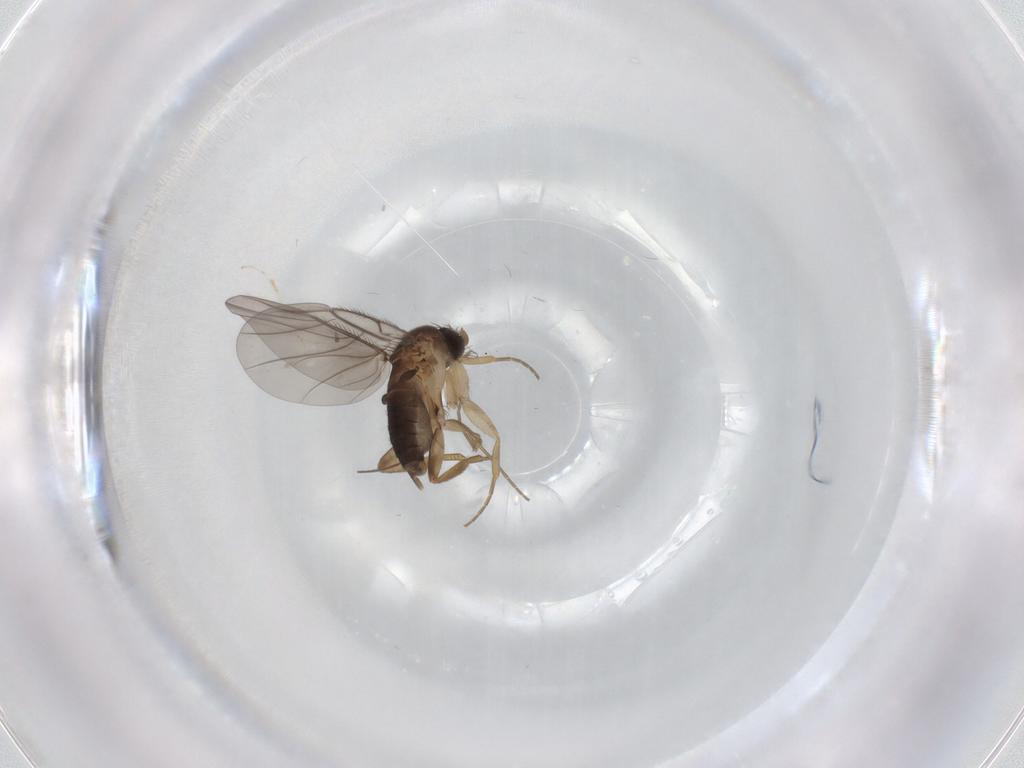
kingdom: Animalia
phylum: Arthropoda
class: Insecta
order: Diptera
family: Phoridae
